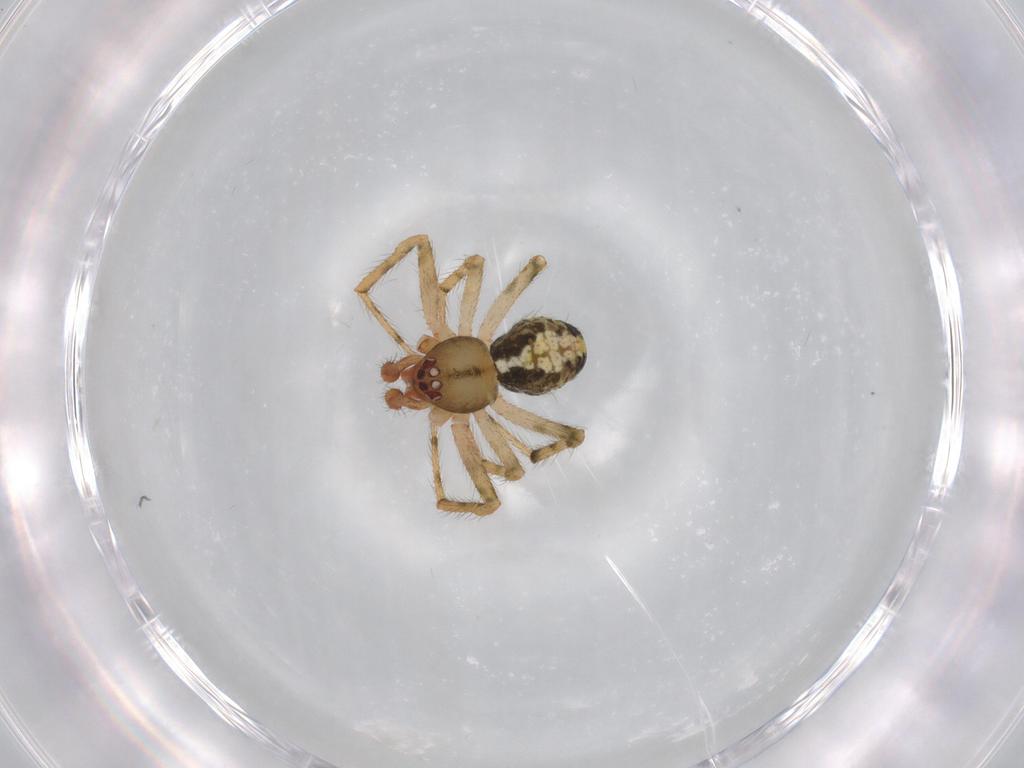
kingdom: Animalia
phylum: Arthropoda
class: Arachnida
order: Araneae
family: Theridiidae
